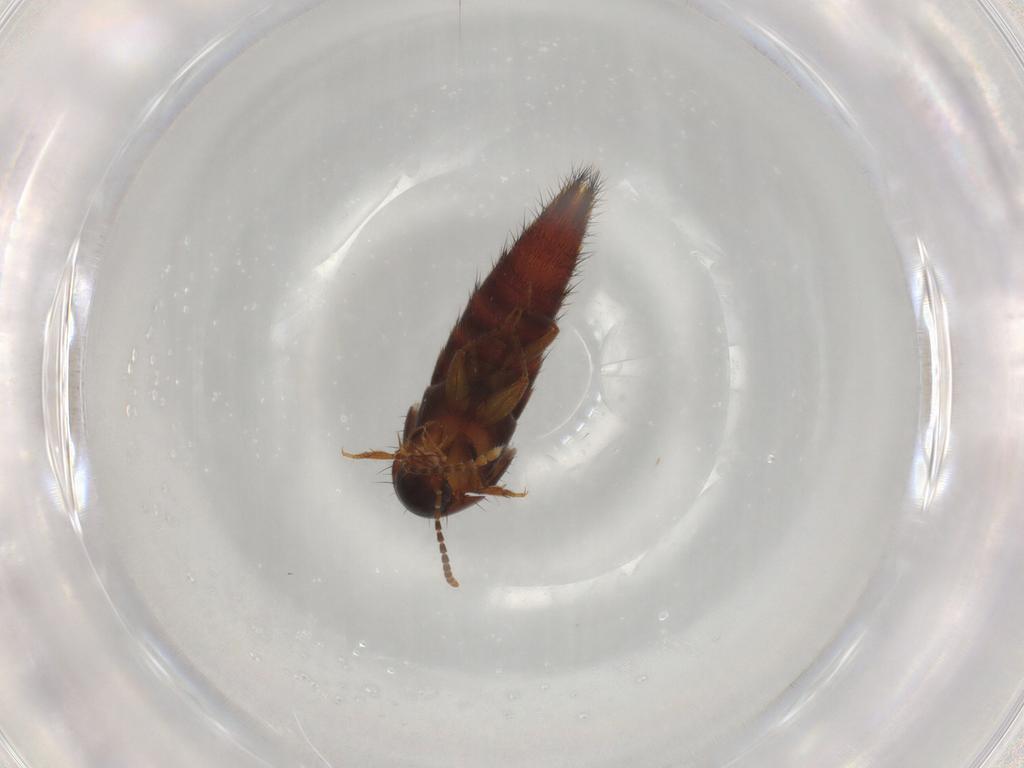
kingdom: Animalia
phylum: Arthropoda
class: Insecta
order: Coleoptera
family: Staphylinidae
